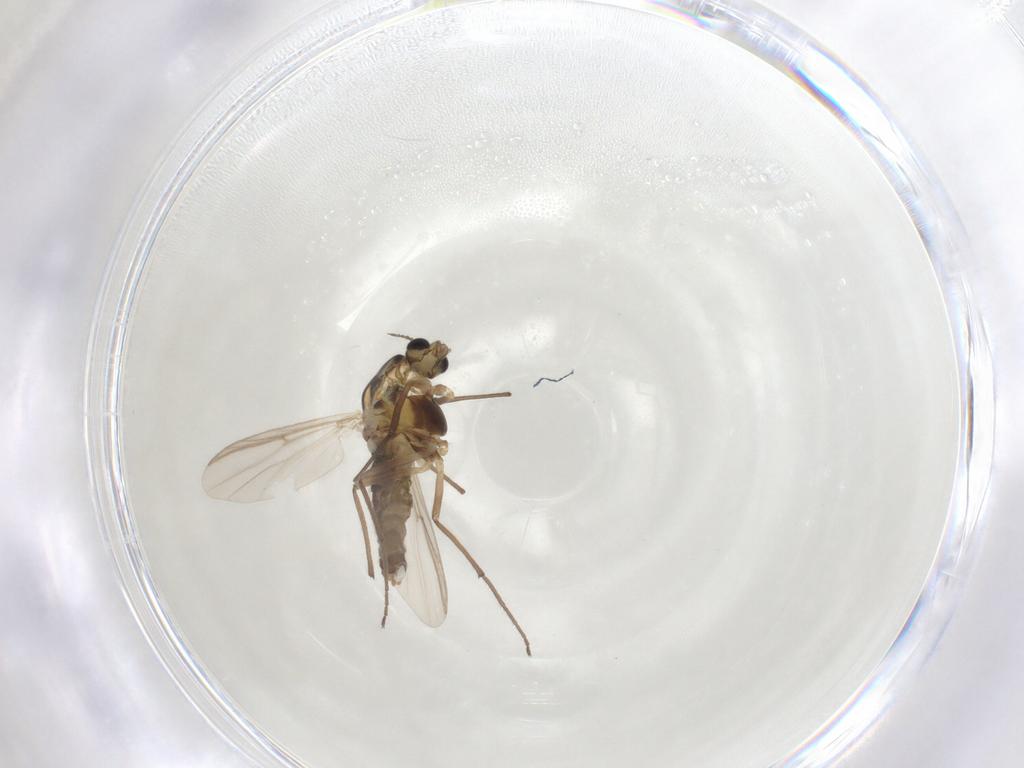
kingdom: Animalia
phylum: Arthropoda
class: Insecta
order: Diptera
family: Chironomidae
